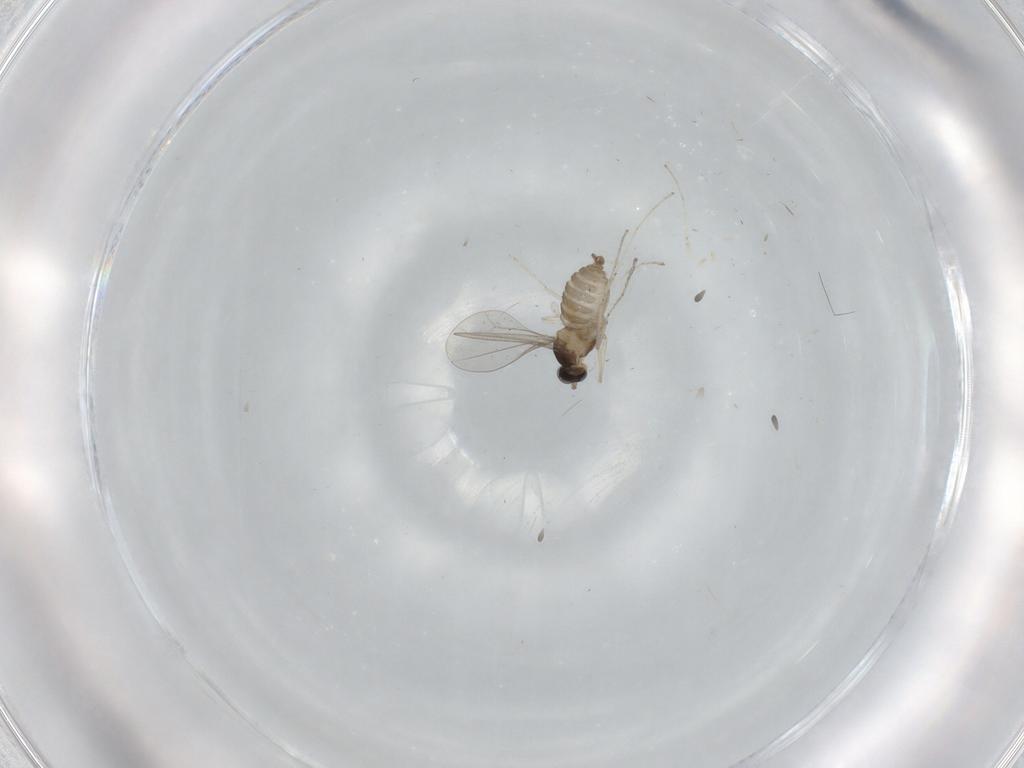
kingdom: Animalia
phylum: Arthropoda
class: Insecta
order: Diptera
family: Cecidomyiidae
